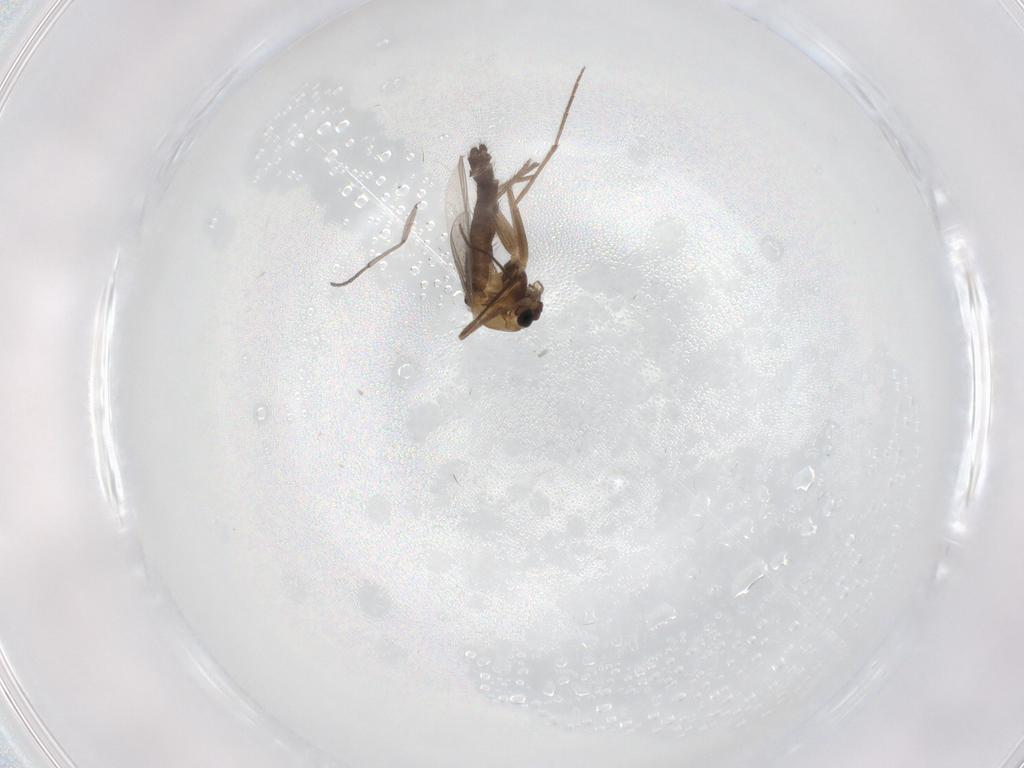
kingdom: Animalia
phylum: Arthropoda
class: Insecta
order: Diptera
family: Chironomidae
